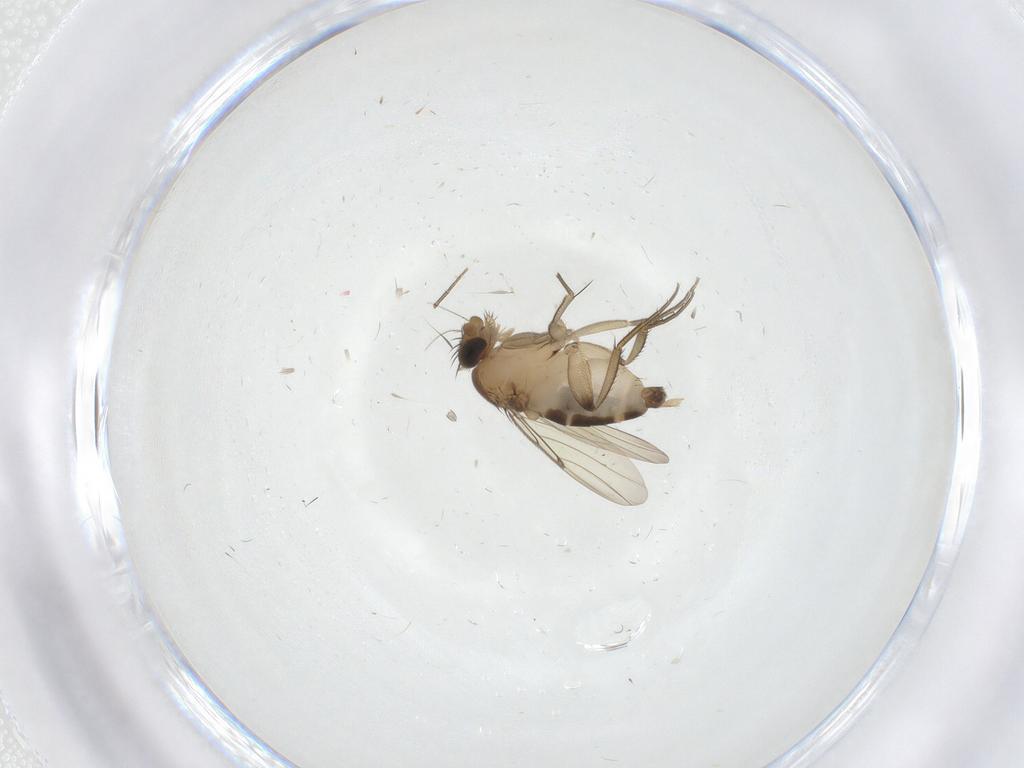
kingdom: Animalia
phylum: Arthropoda
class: Insecta
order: Diptera
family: Phoridae
